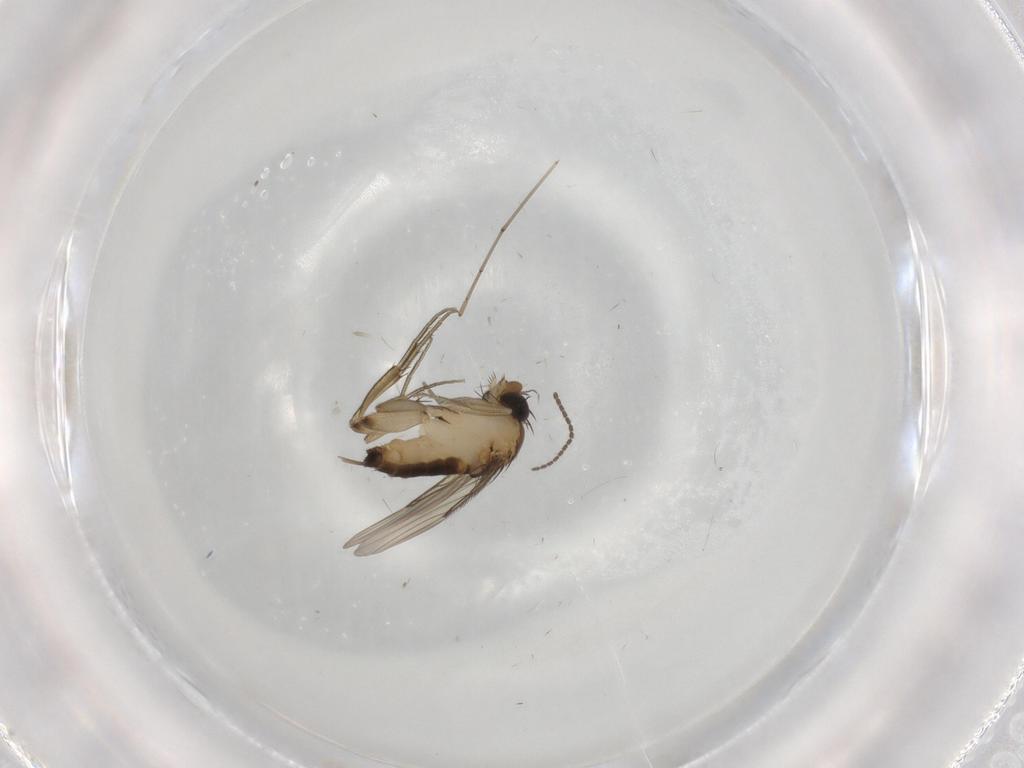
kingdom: Animalia
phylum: Arthropoda
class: Insecta
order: Diptera
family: Phoridae
